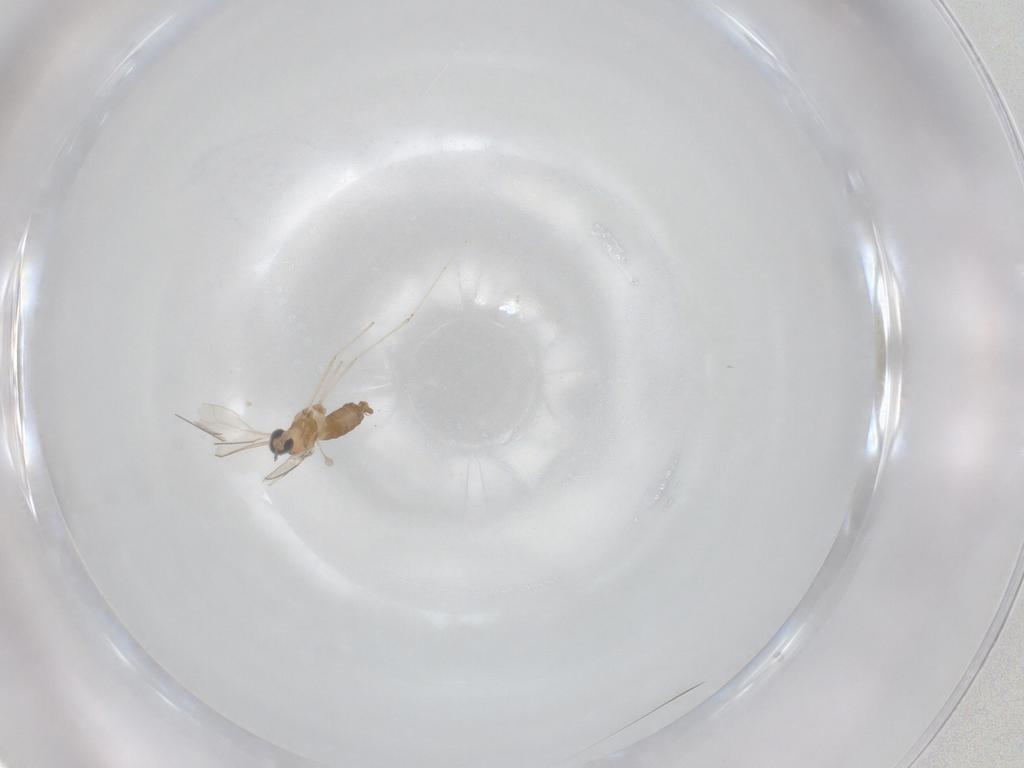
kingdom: Animalia
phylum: Arthropoda
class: Insecta
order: Diptera
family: Cecidomyiidae
